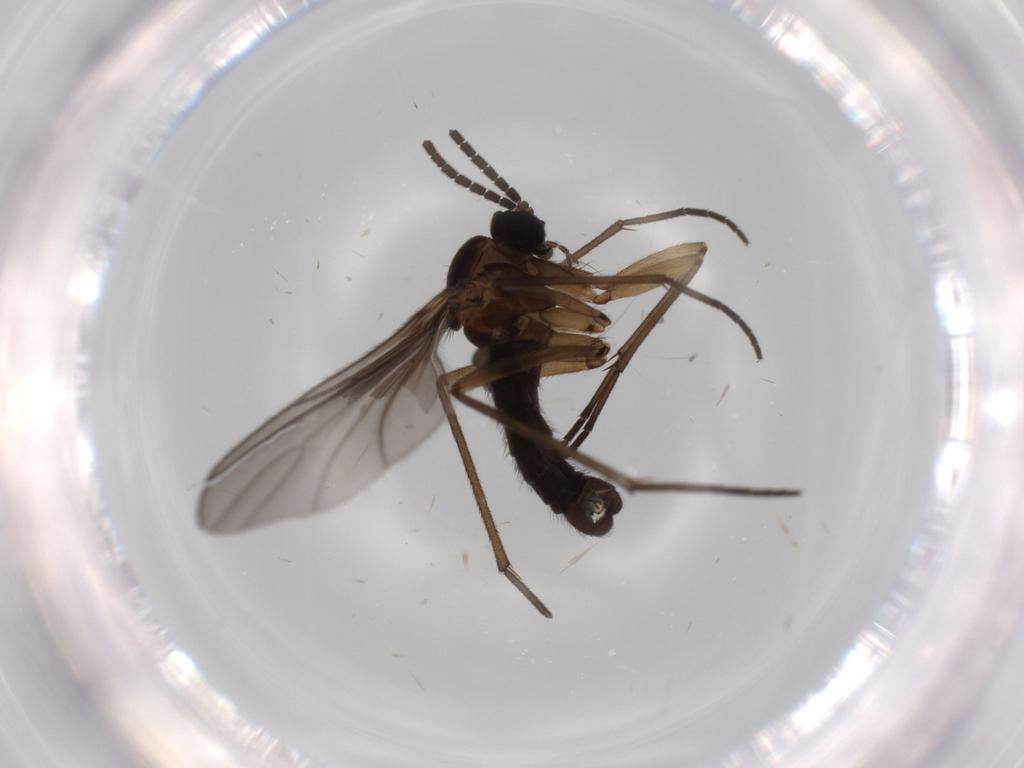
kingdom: Animalia
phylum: Arthropoda
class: Insecta
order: Diptera
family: Sciaridae
